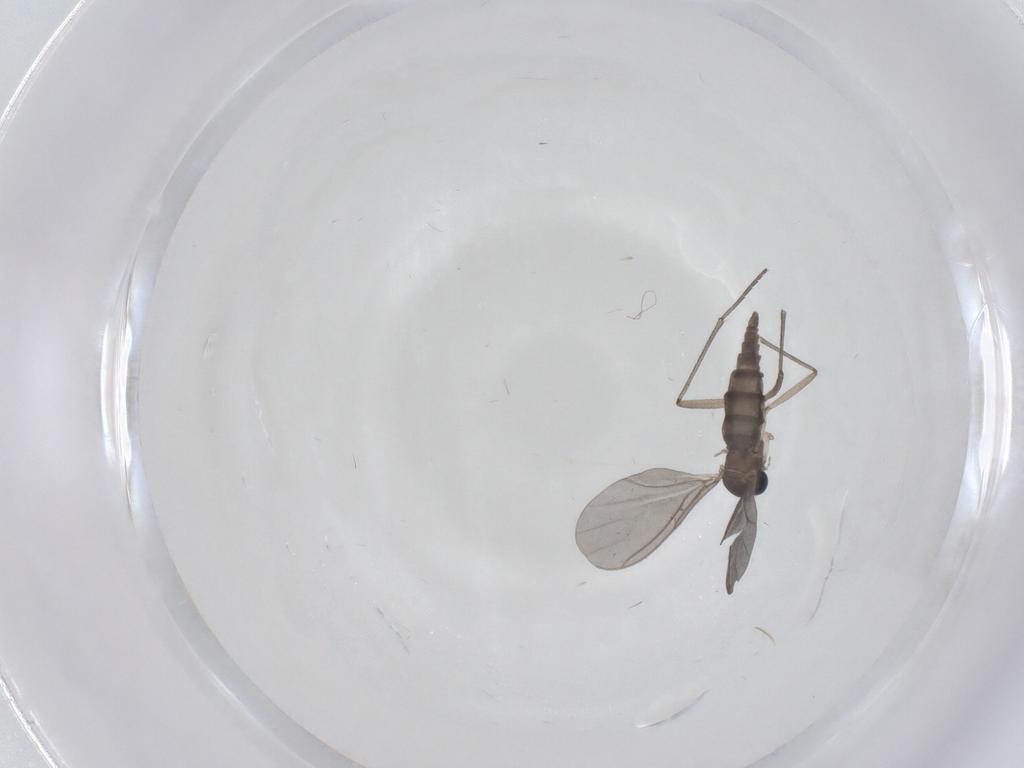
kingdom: Animalia
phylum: Arthropoda
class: Insecta
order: Diptera
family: Sciaridae
